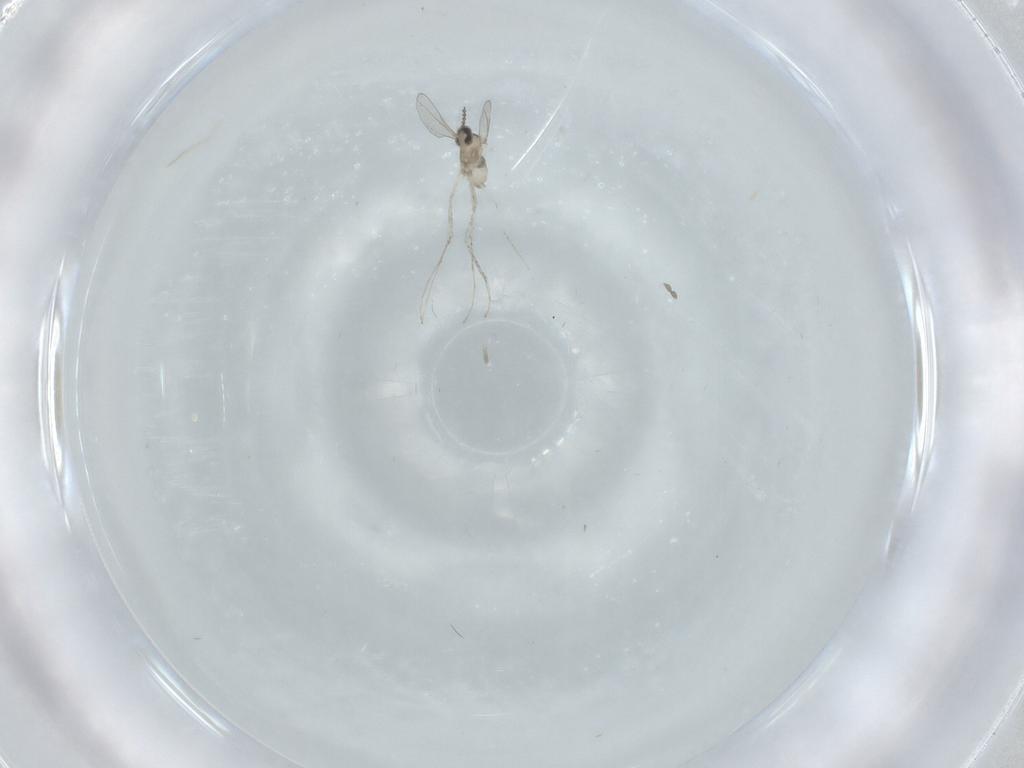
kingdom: Animalia
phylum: Arthropoda
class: Insecta
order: Diptera
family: Cecidomyiidae
